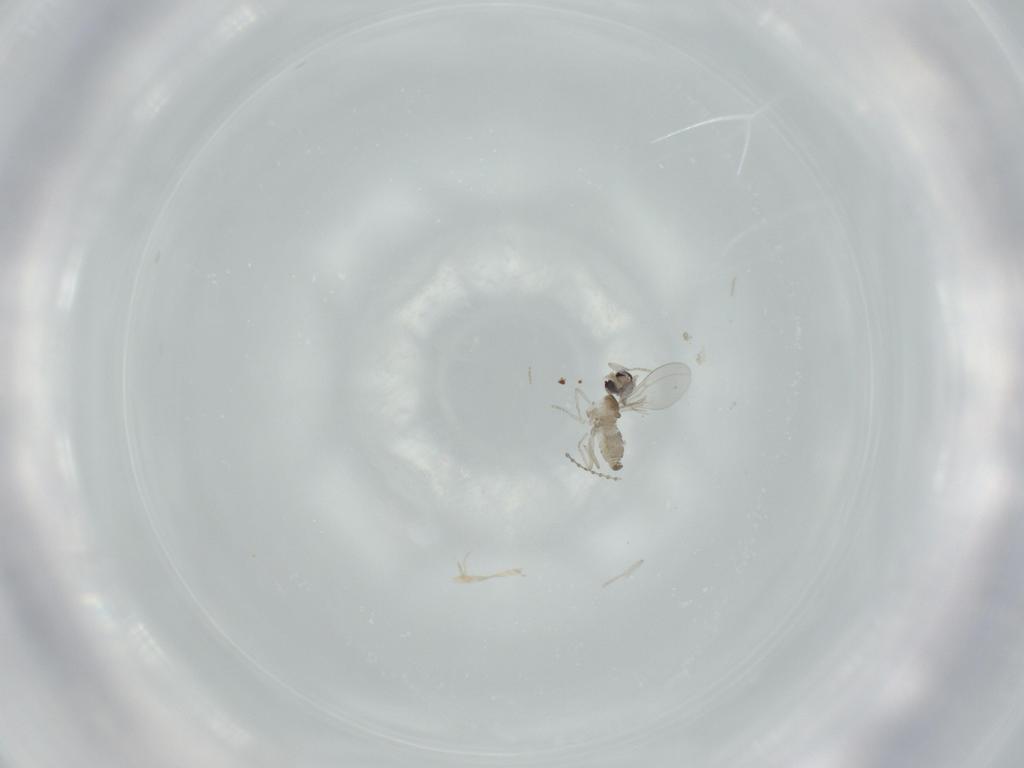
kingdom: Animalia
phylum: Arthropoda
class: Insecta
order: Diptera
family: Cecidomyiidae
